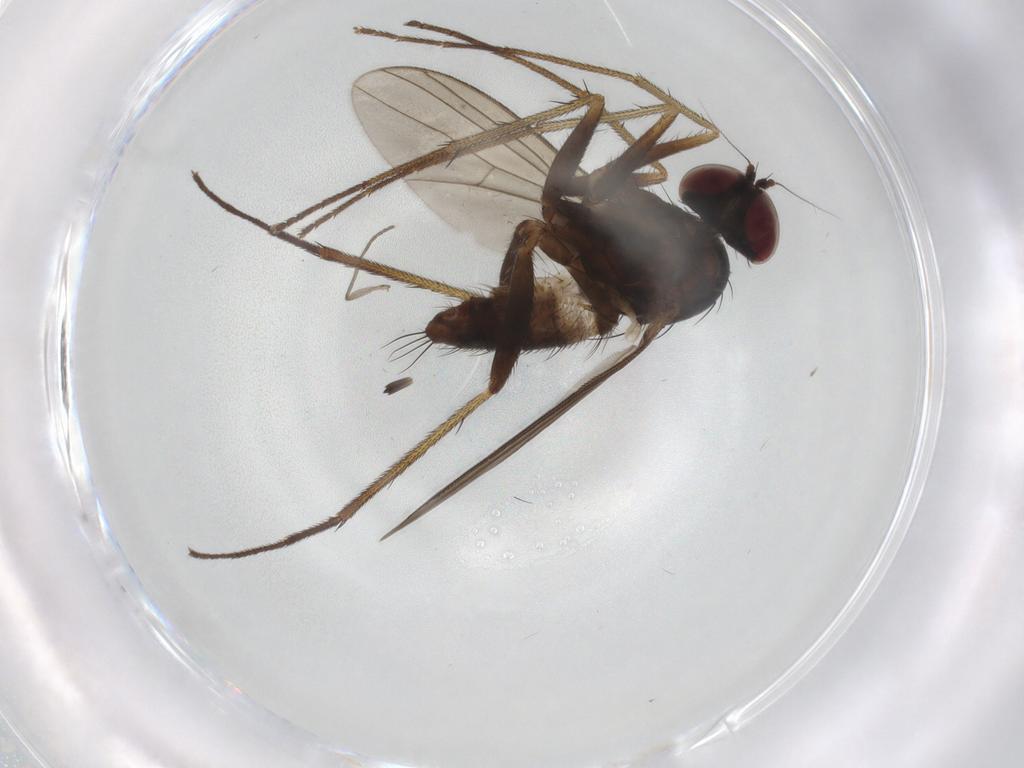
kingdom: Animalia
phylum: Arthropoda
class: Insecta
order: Diptera
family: Dolichopodidae
